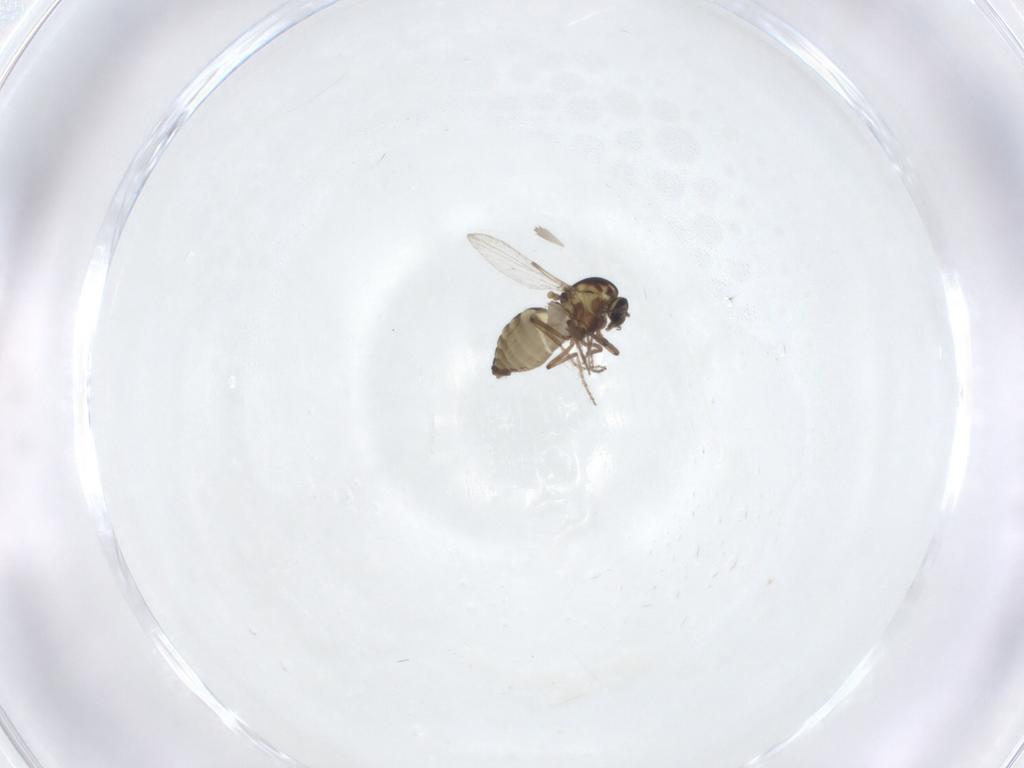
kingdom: Animalia
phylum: Arthropoda
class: Insecta
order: Diptera
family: Ceratopogonidae
